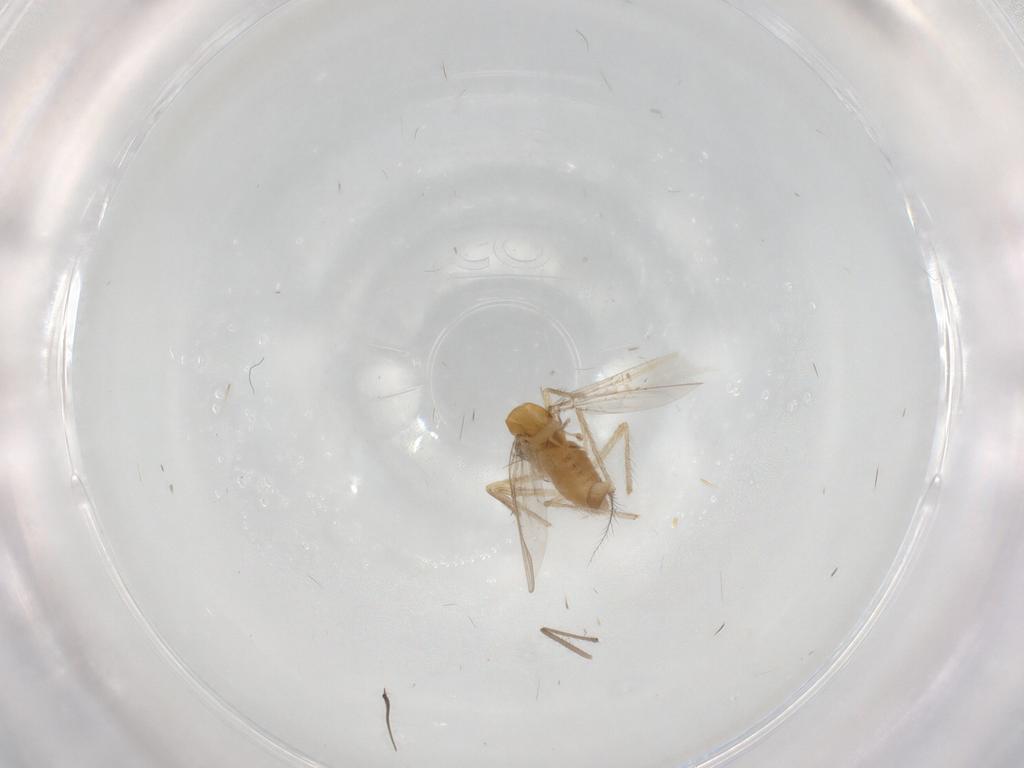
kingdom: Animalia
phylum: Arthropoda
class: Insecta
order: Diptera
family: Chironomidae
